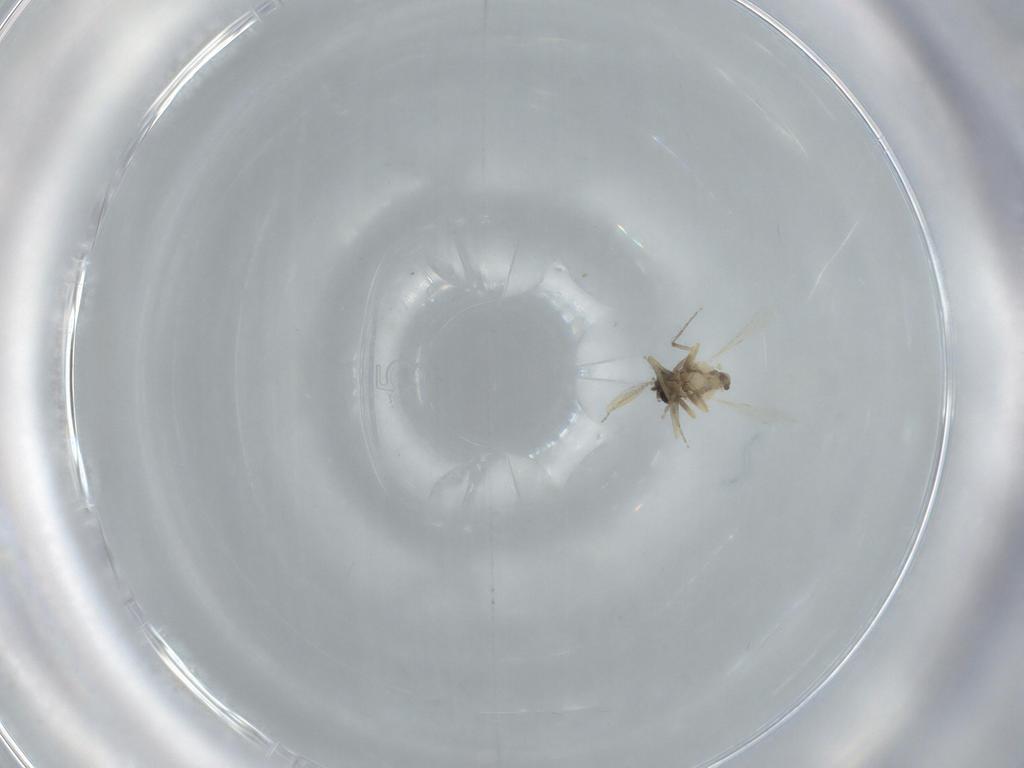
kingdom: Animalia
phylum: Arthropoda
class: Insecta
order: Diptera
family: Ceratopogonidae
